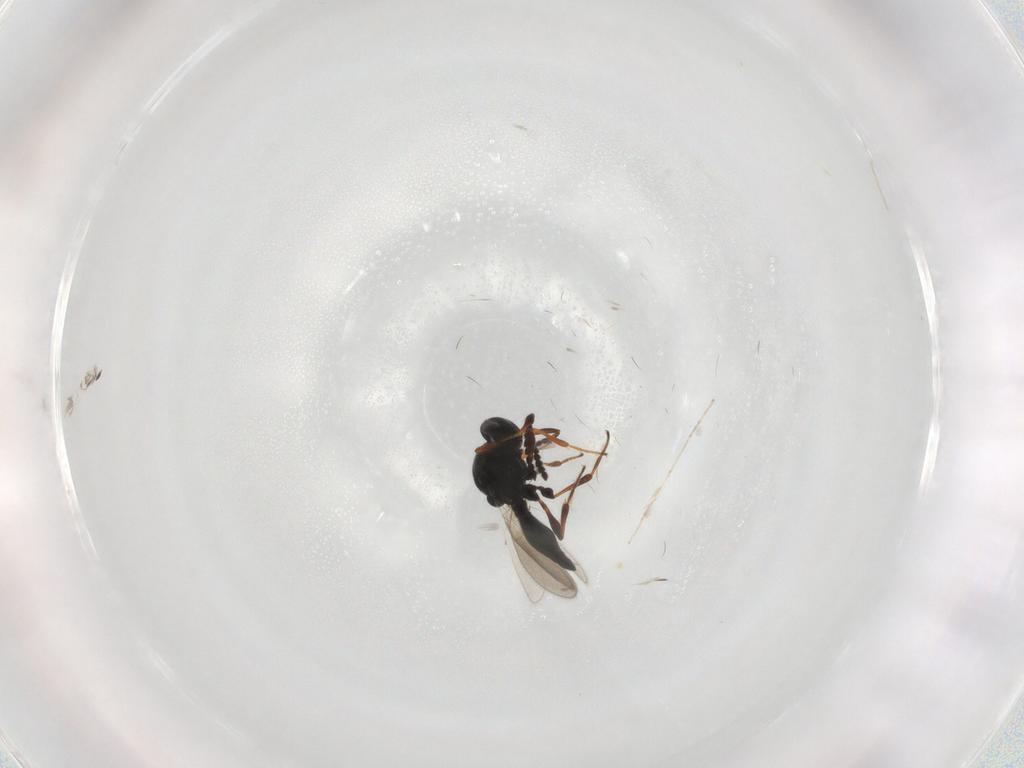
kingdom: Animalia
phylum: Arthropoda
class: Insecta
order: Hymenoptera
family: Platygastridae
